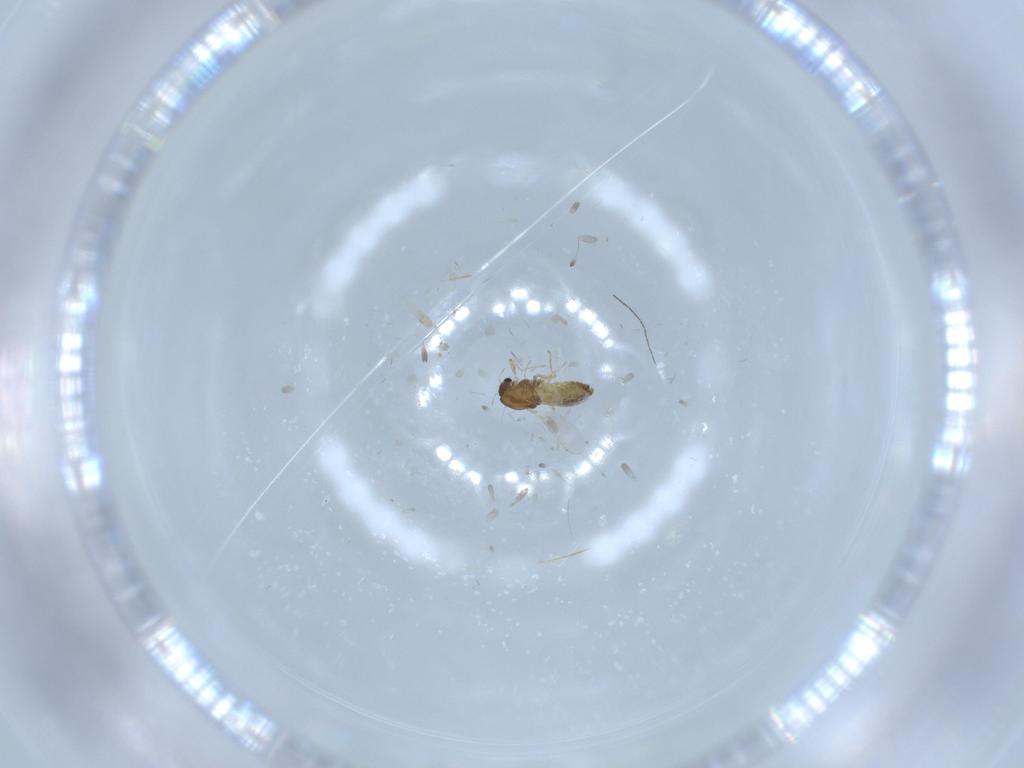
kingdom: Animalia
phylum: Arthropoda
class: Insecta
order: Diptera
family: Chironomidae
